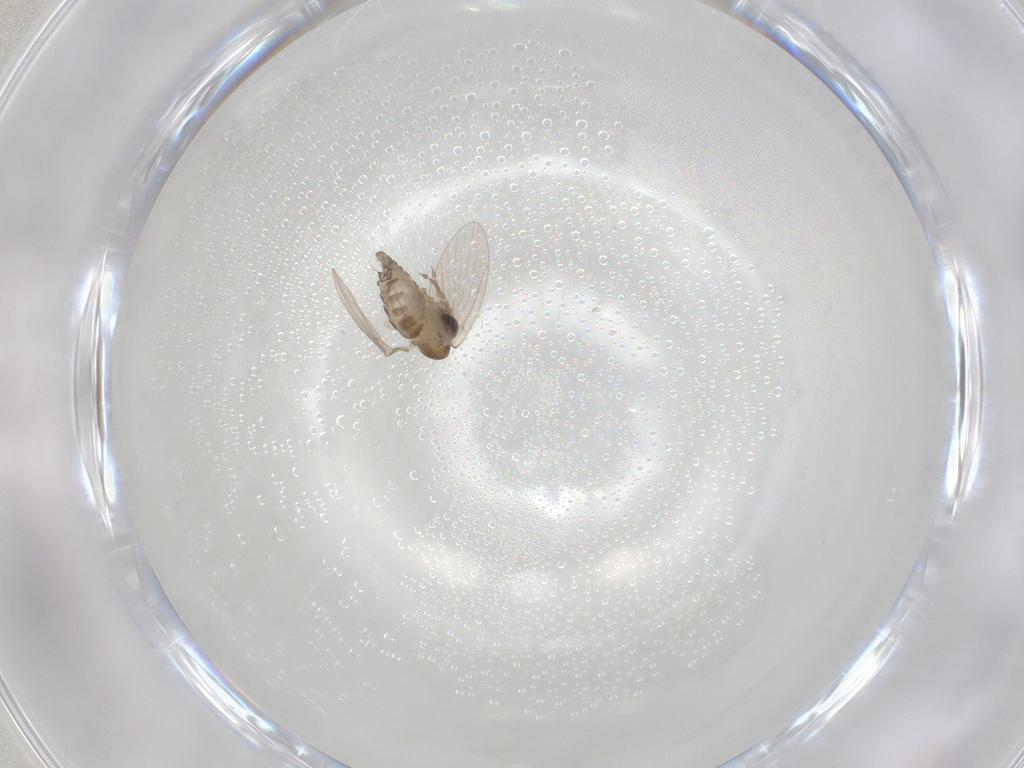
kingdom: Animalia
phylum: Arthropoda
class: Insecta
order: Diptera
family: Cecidomyiidae
